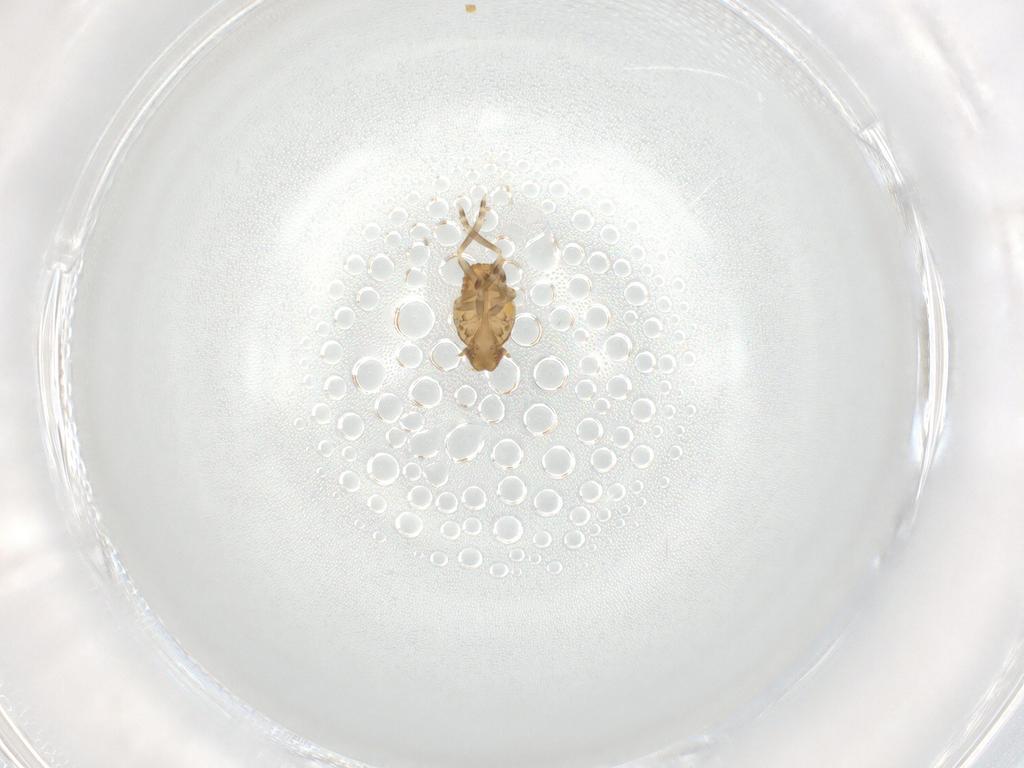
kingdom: Animalia
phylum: Arthropoda
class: Insecta
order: Hemiptera
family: Flatidae
